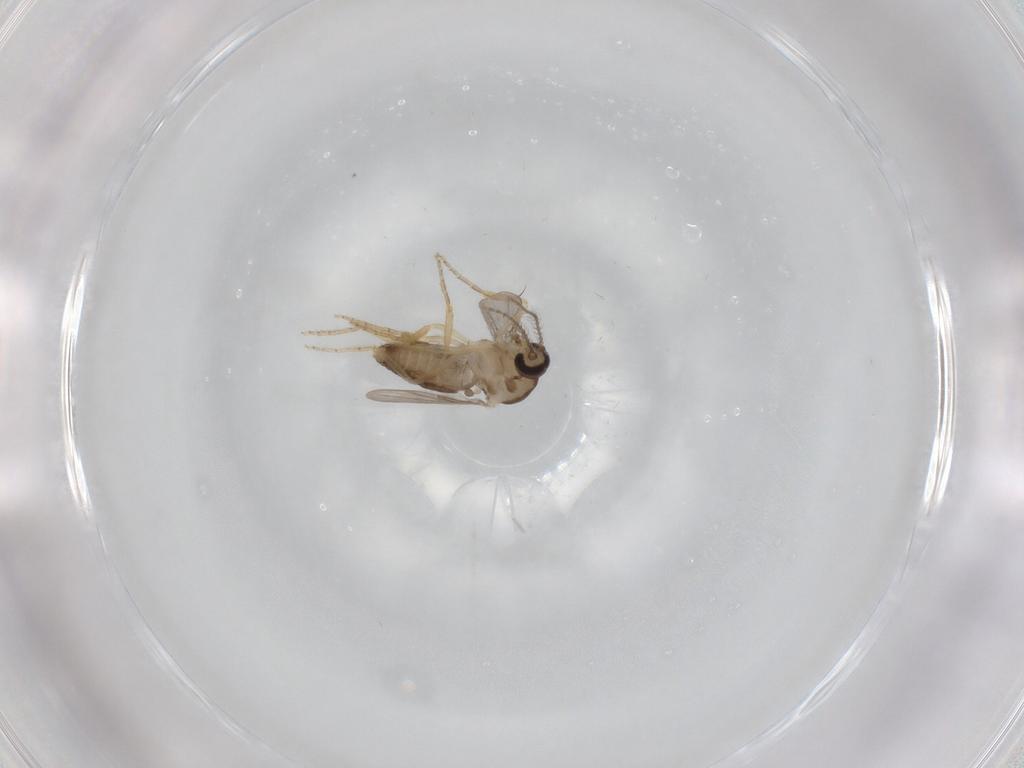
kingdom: Animalia
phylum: Arthropoda
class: Insecta
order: Diptera
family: Ceratopogonidae
